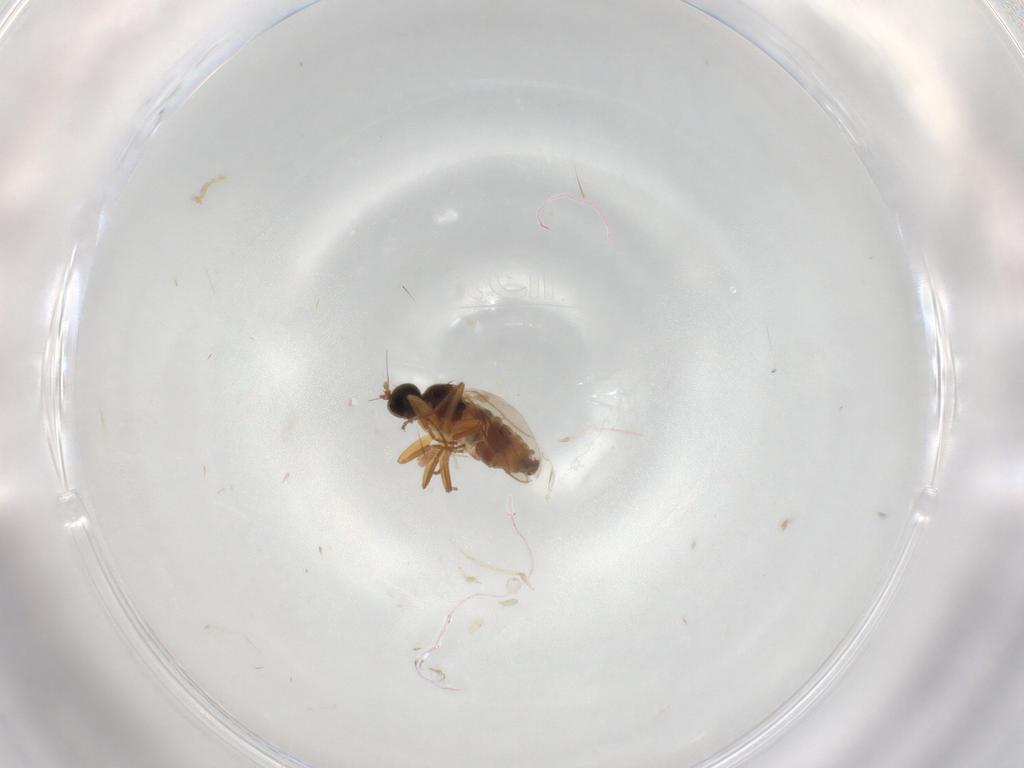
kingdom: Animalia
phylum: Arthropoda
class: Insecta
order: Diptera
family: Hybotidae
